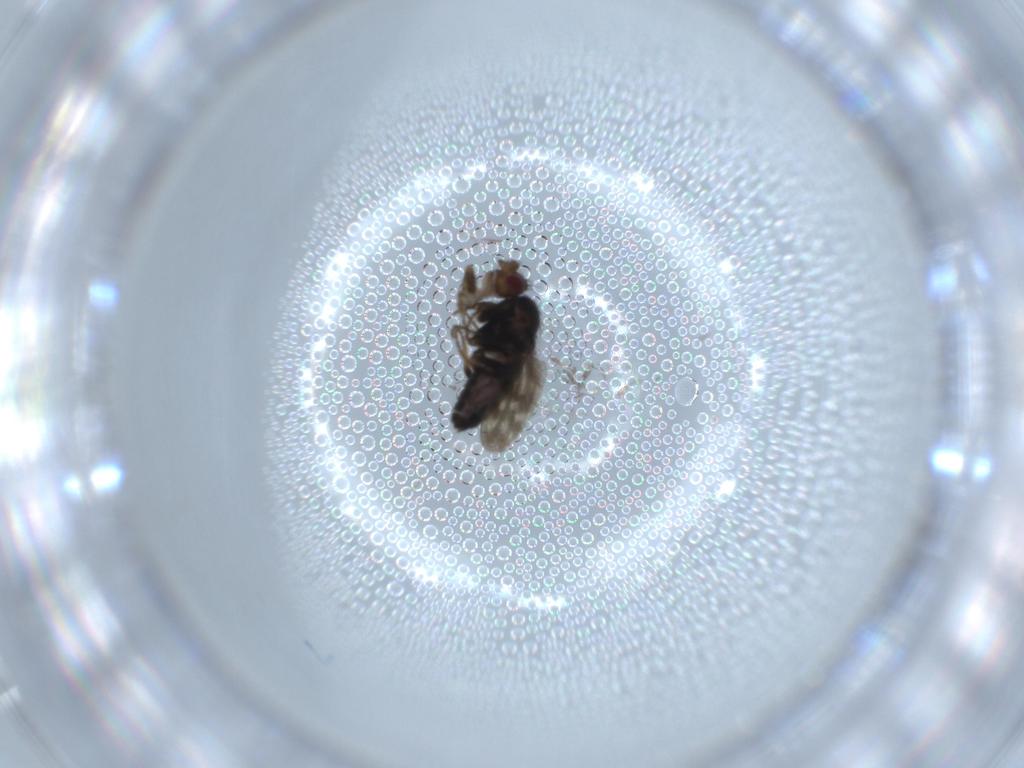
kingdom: Animalia
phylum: Arthropoda
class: Insecta
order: Diptera
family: Sphaeroceridae
